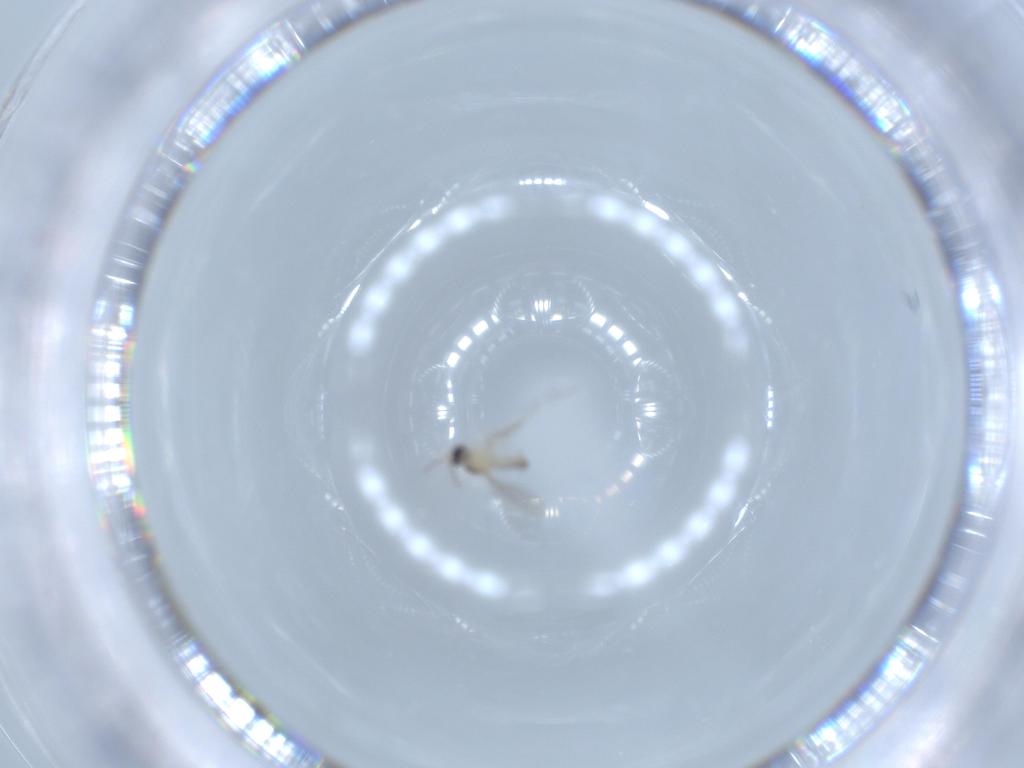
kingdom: Animalia
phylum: Arthropoda
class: Insecta
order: Diptera
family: Cecidomyiidae
